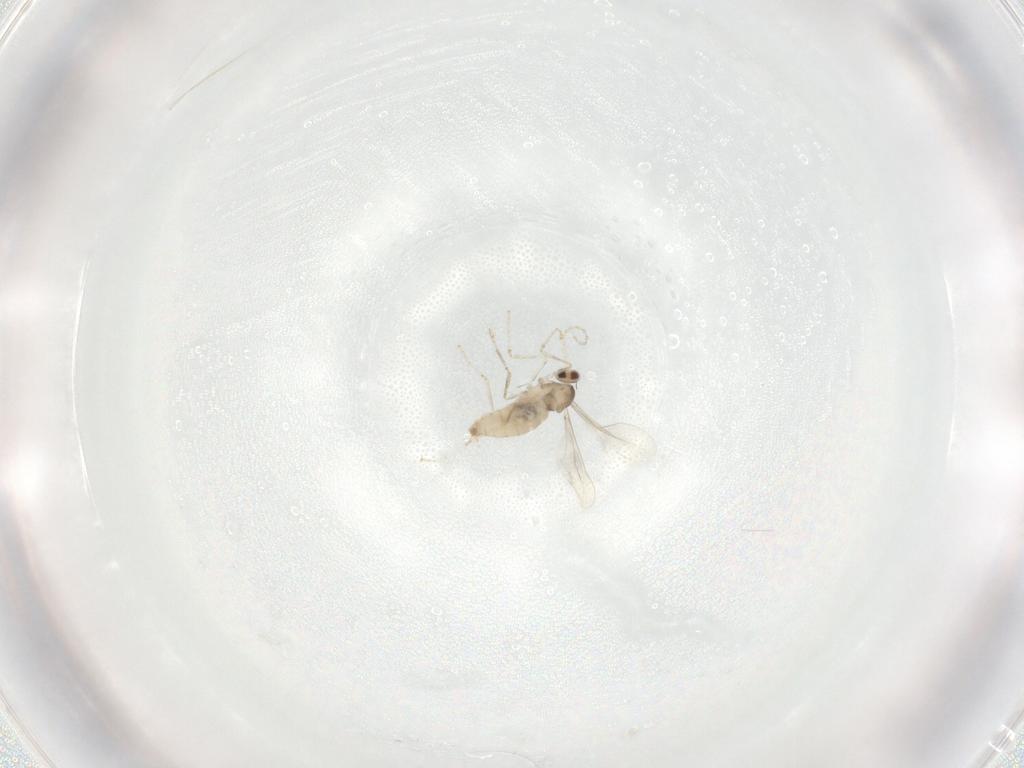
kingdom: Animalia
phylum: Arthropoda
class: Insecta
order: Diptera
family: Cecidomyiidae
